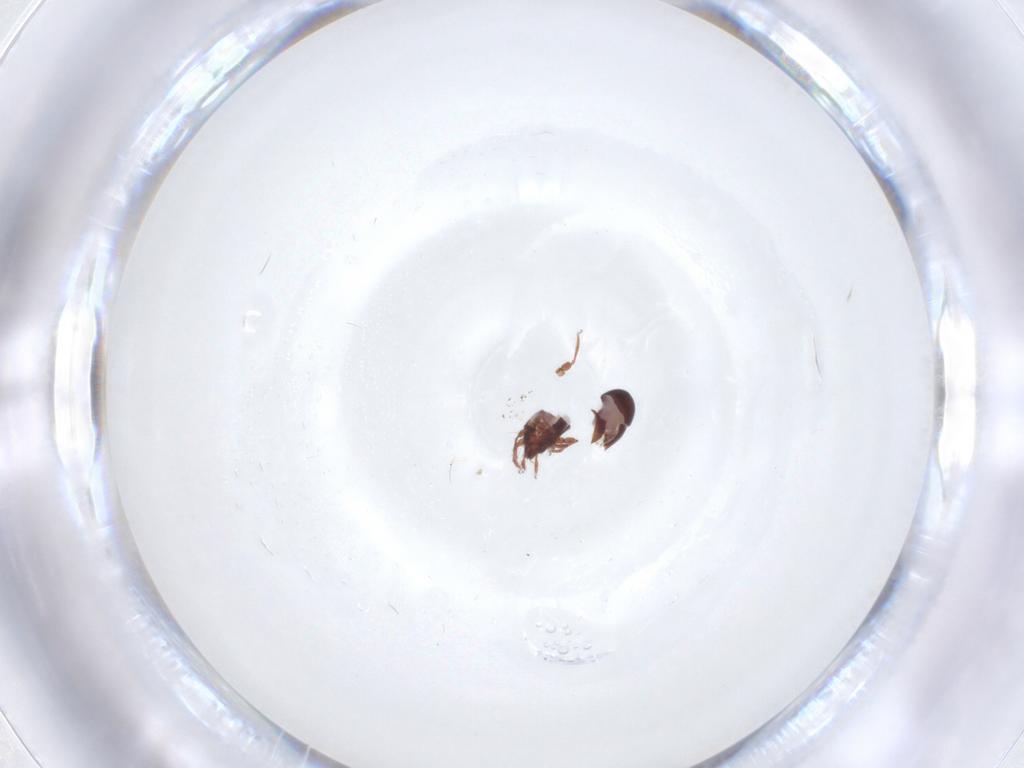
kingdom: Animalia
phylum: Arthropoda
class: Arachnida
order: Sarcoptiformes
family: Ceratozetidae
